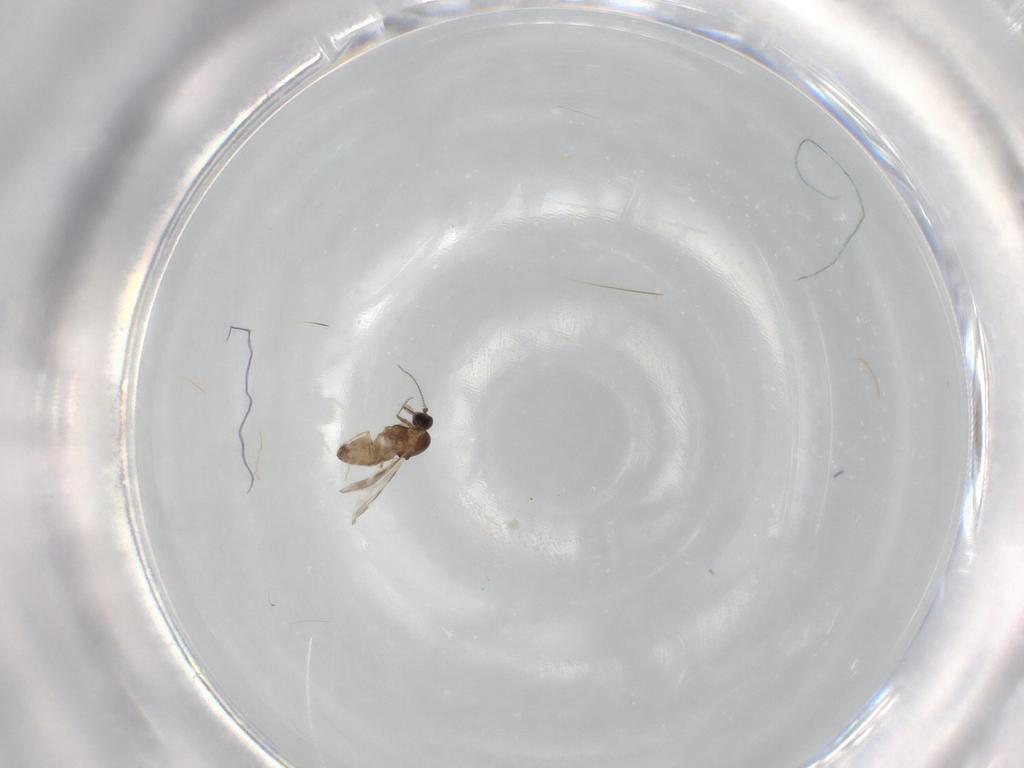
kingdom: Animalia
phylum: Arthropoda
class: Insecta
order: Diptera
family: Ceratopogonidae
